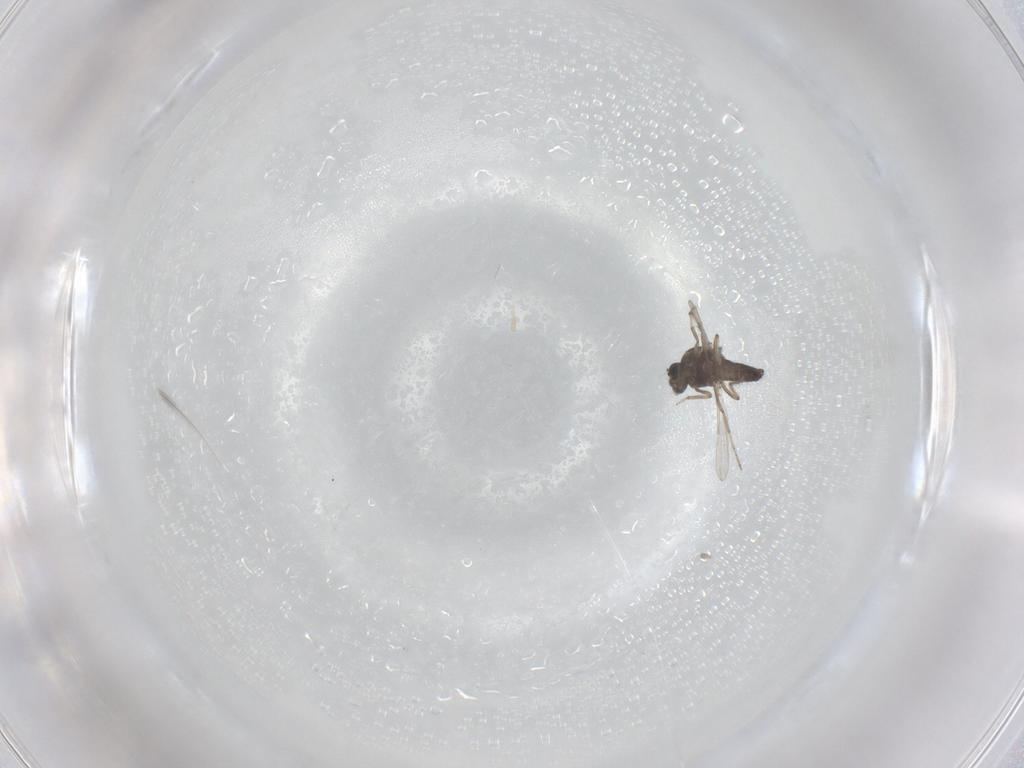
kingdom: Animalia
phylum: Arthropoda
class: Insecta
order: Diptera
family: Ceratopogonidae
